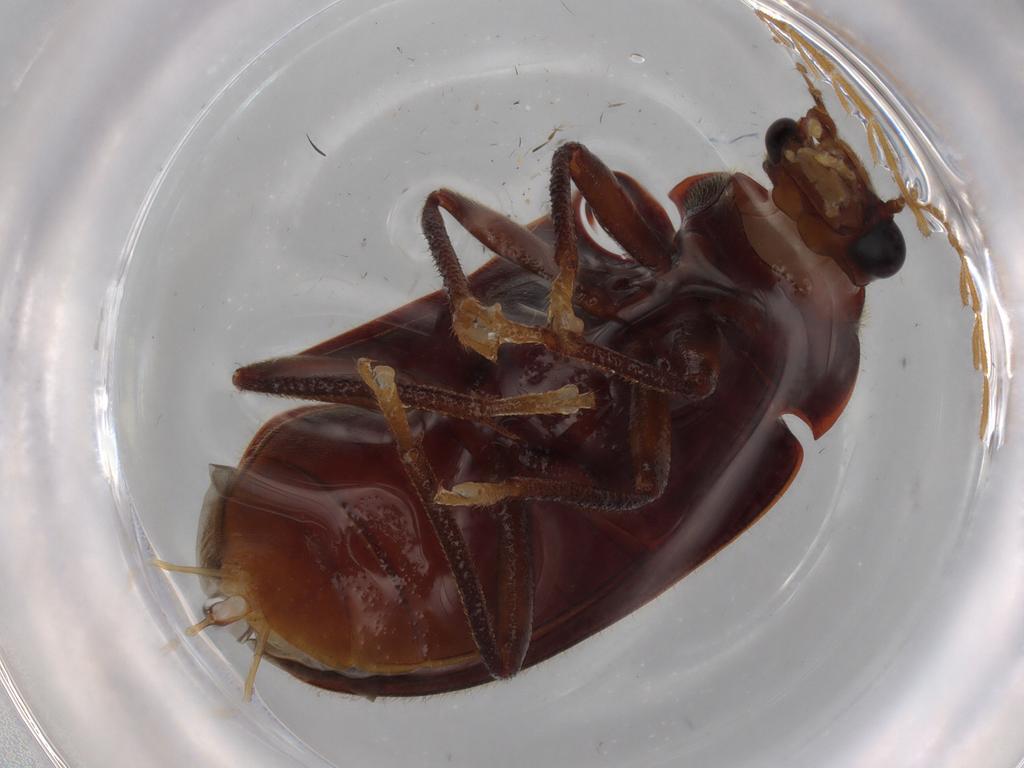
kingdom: Animalia
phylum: Arthropoda
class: Insecta
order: Coleoptera
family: Ptilodactylidae
